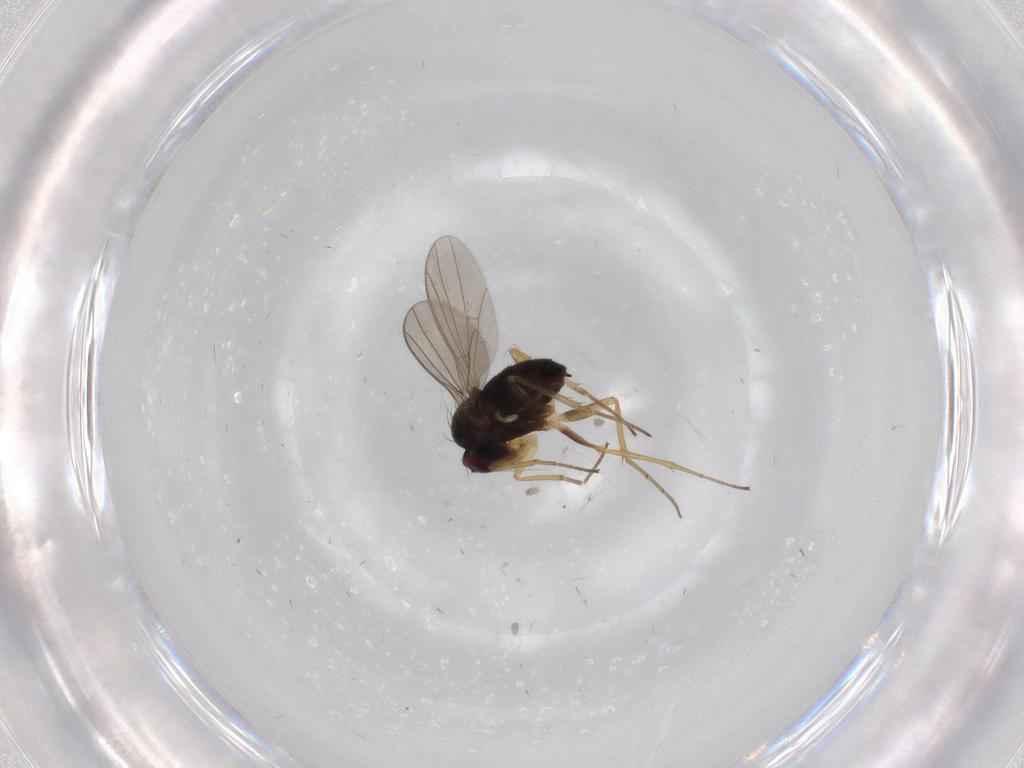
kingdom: Animalia
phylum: Arthropoda
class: Insecta
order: Diptera
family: Dolichopodidae
